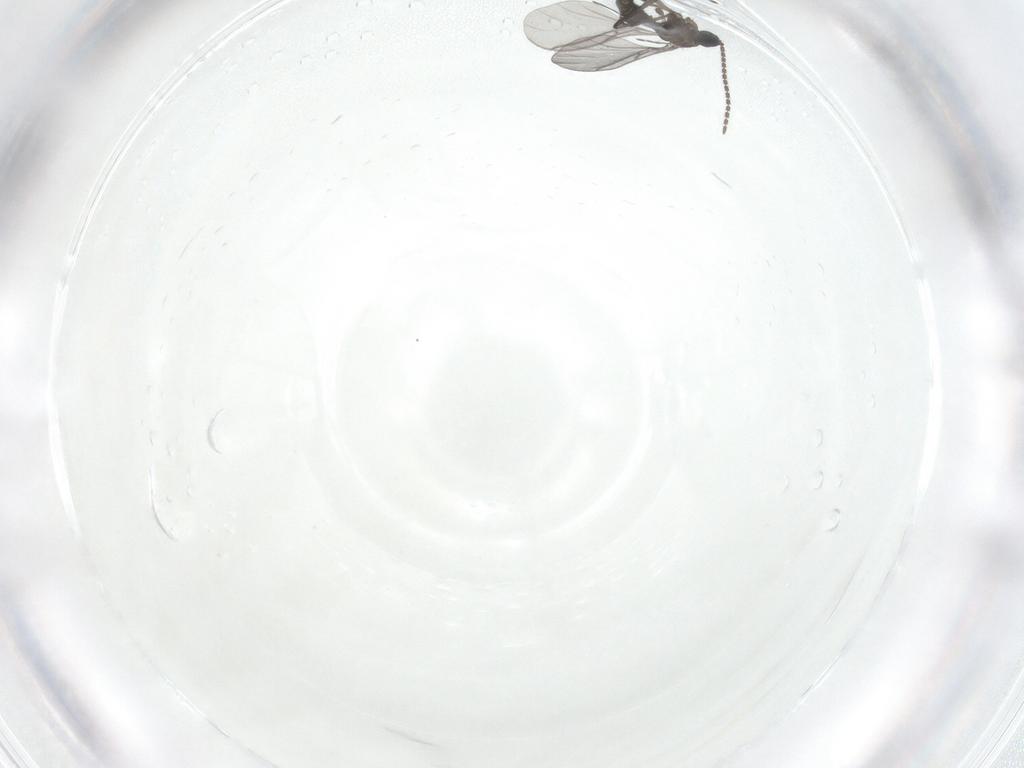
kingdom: Animalia
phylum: Arthropoda
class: Insecta
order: Diptera
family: Sciaridae
